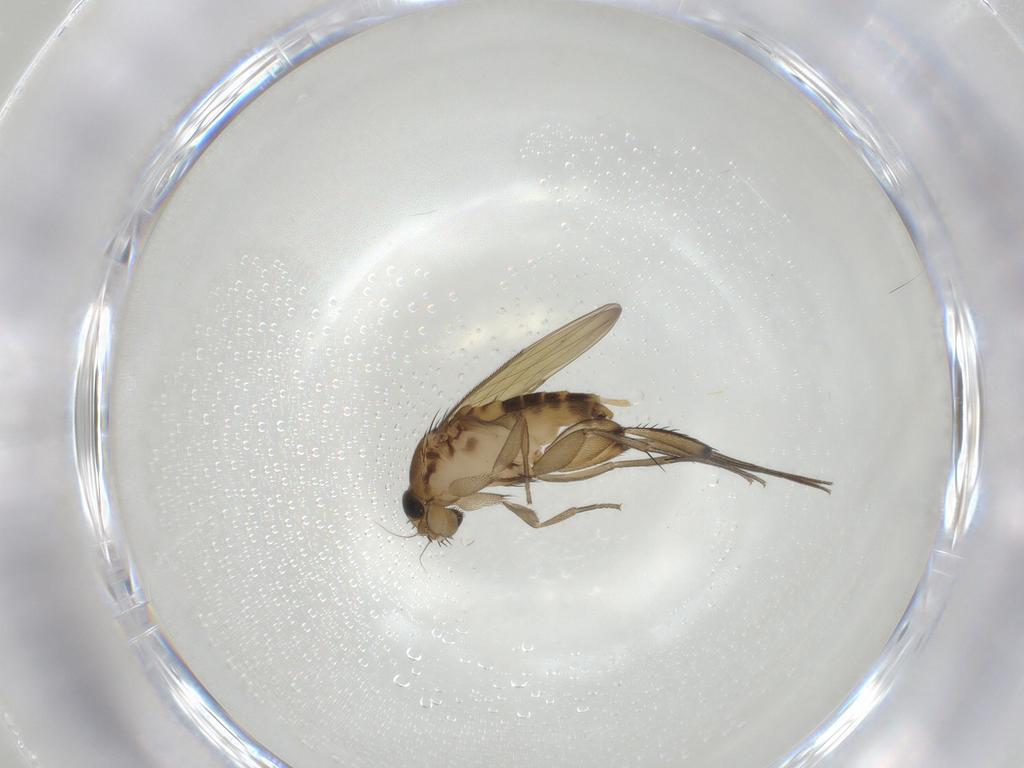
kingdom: Animalia
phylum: Arthropoda
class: Insecta
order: Diptera
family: Phoridae
